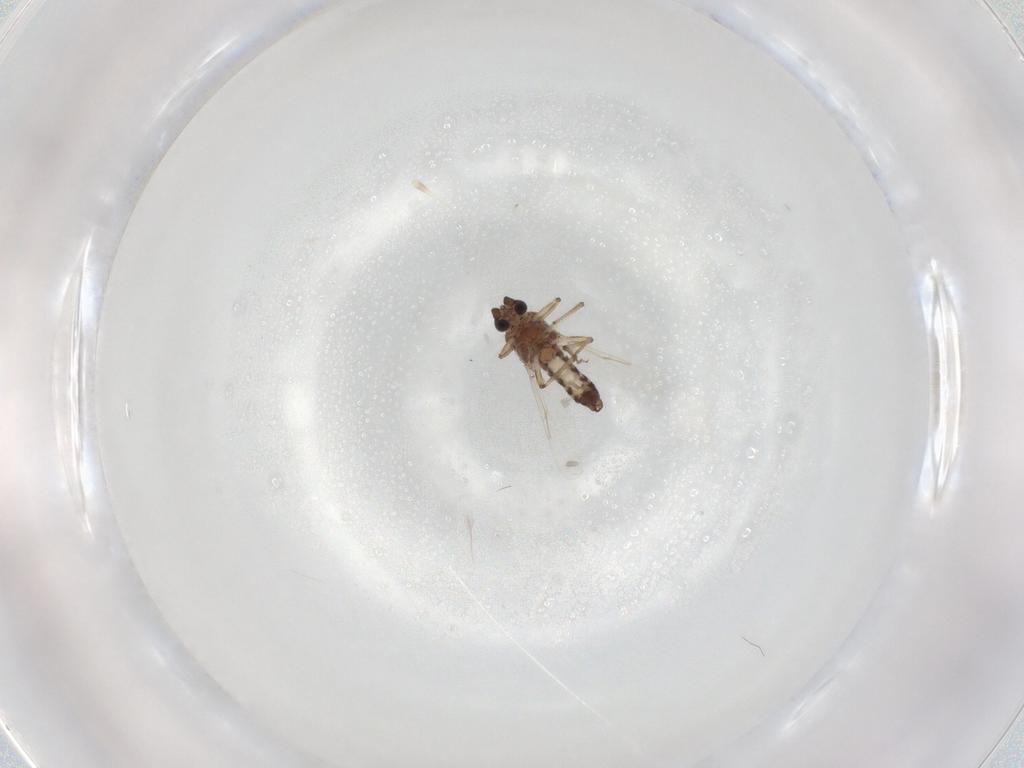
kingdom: Animalia
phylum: Arthropoda
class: Insecta
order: Diptera
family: Ceratopogonidae
